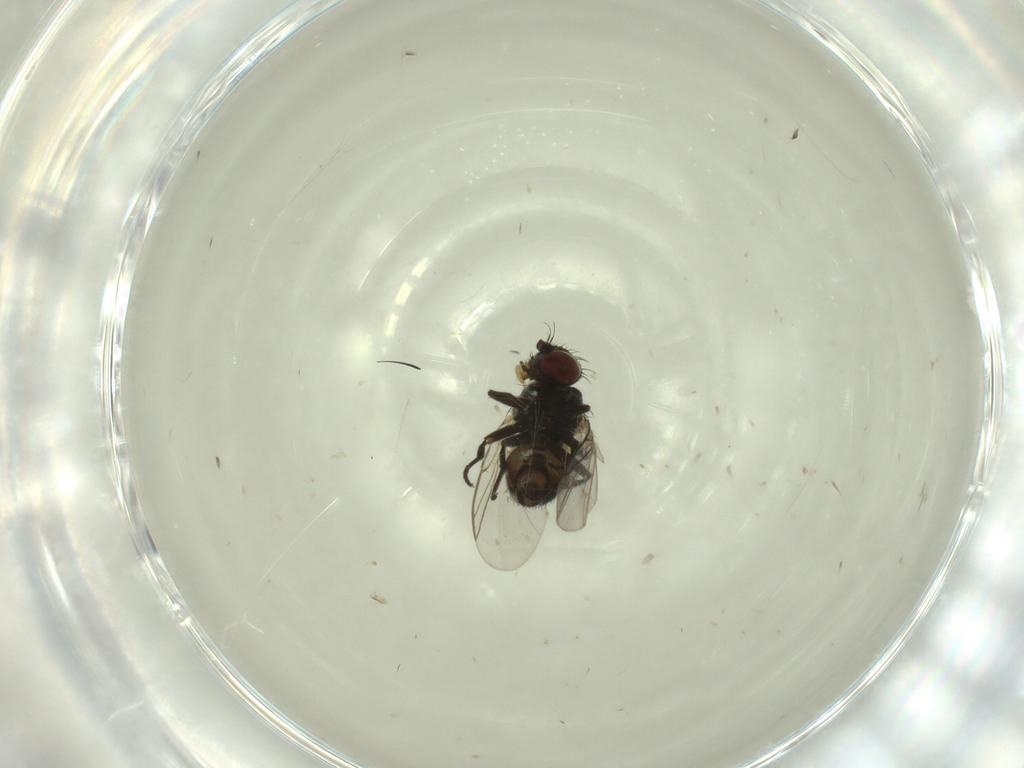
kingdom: Animalia
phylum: Arthropoda
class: Insecta
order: Diptera
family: Dolichopodidae
